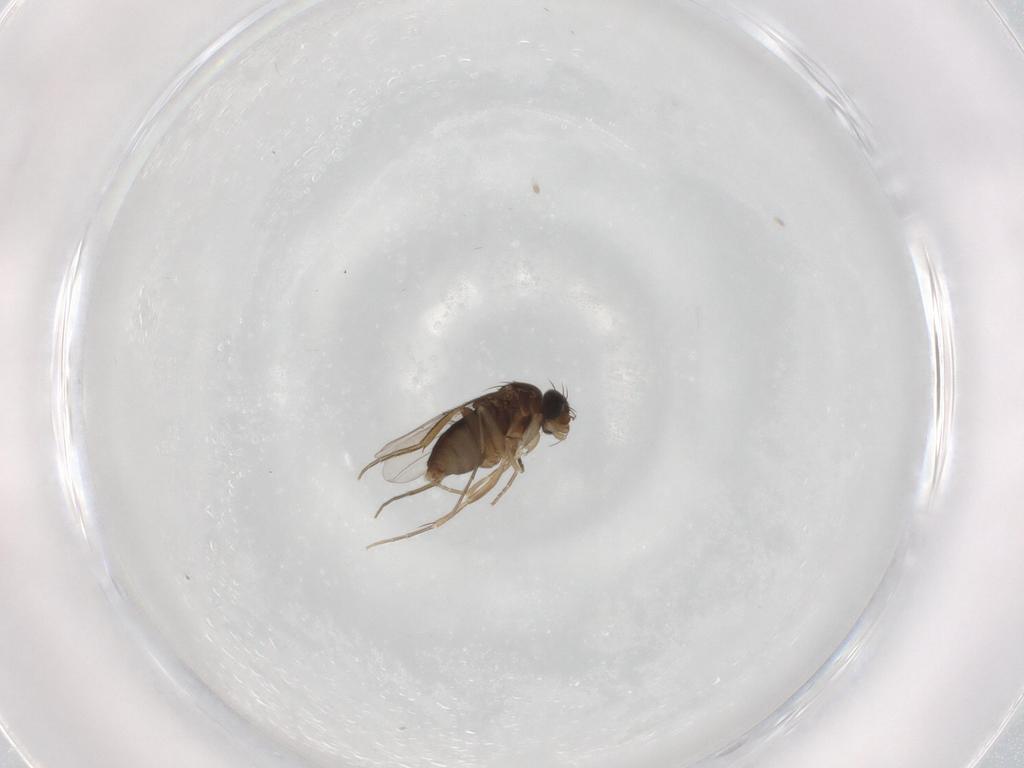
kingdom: Animalia
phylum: Arthropoda
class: Insecta
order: Diptera
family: Phoridae
